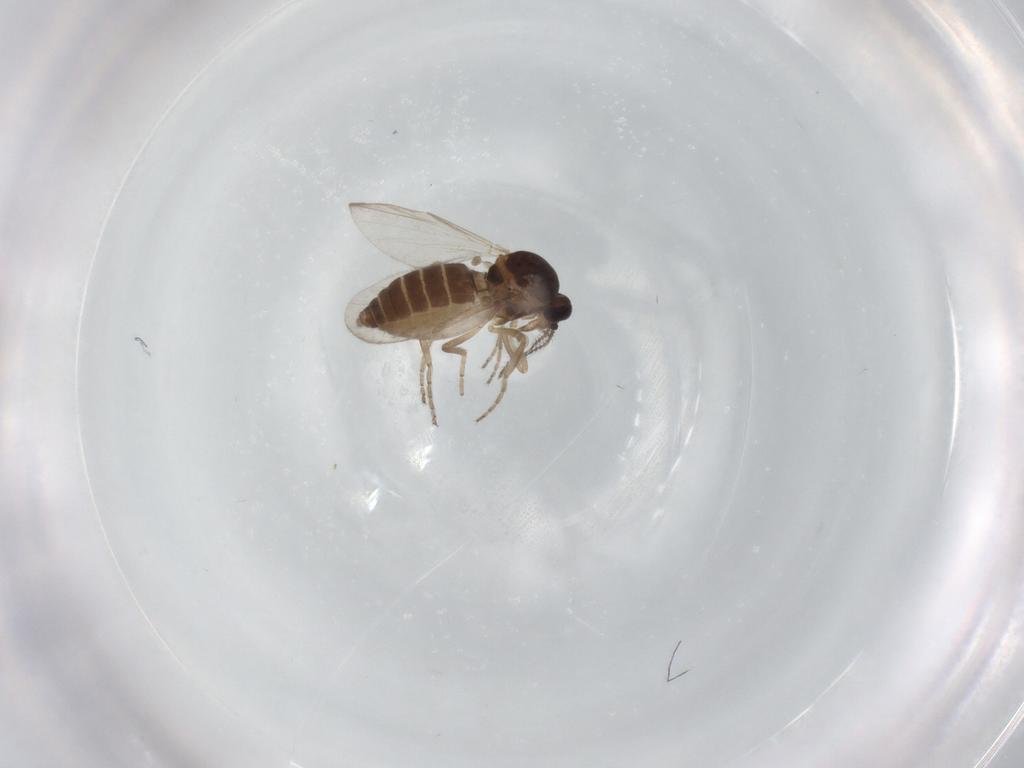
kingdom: Animalia
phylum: Arthropoda
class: Insecta
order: Diptera
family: Ceratopogonidae
